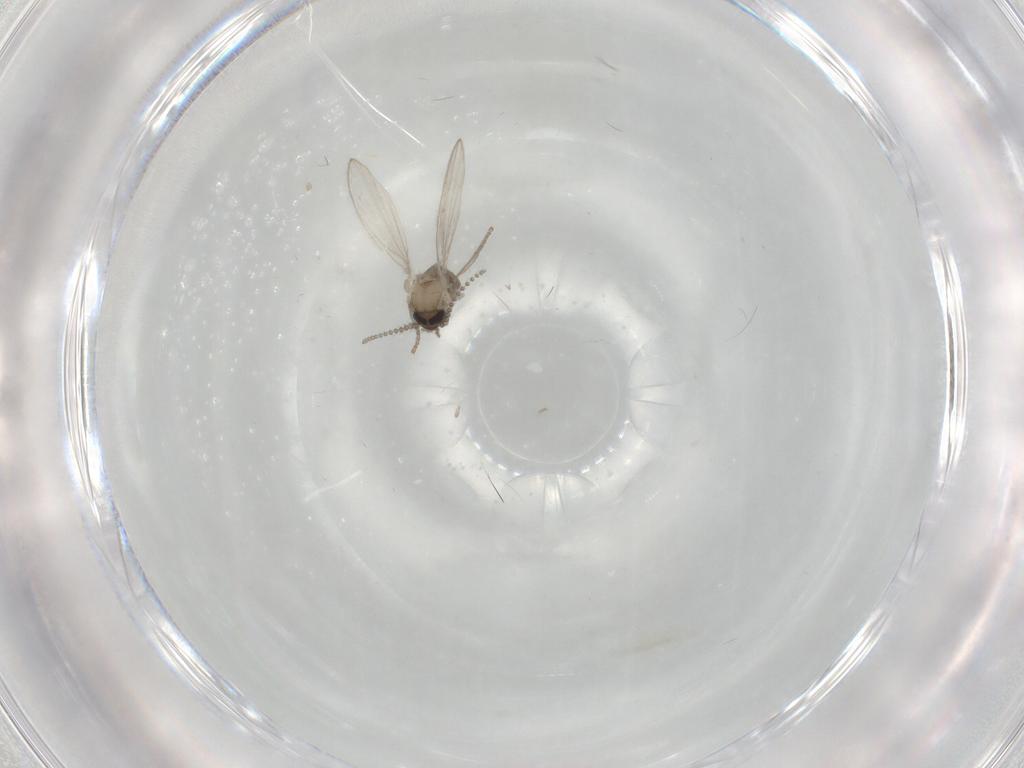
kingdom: Animalia
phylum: Arthropoda
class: Insecta
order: Diptera
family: Psychodidae
